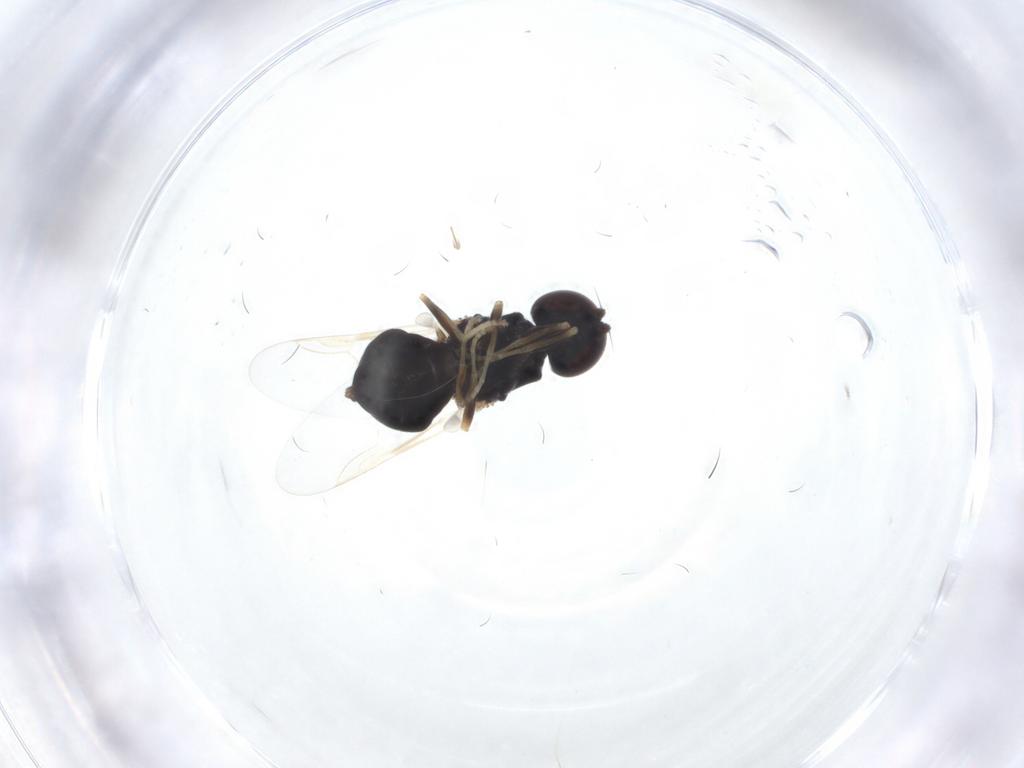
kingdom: Animalia
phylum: Arthropoda
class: Insecta
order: Diptera
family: Stratiomyidae
